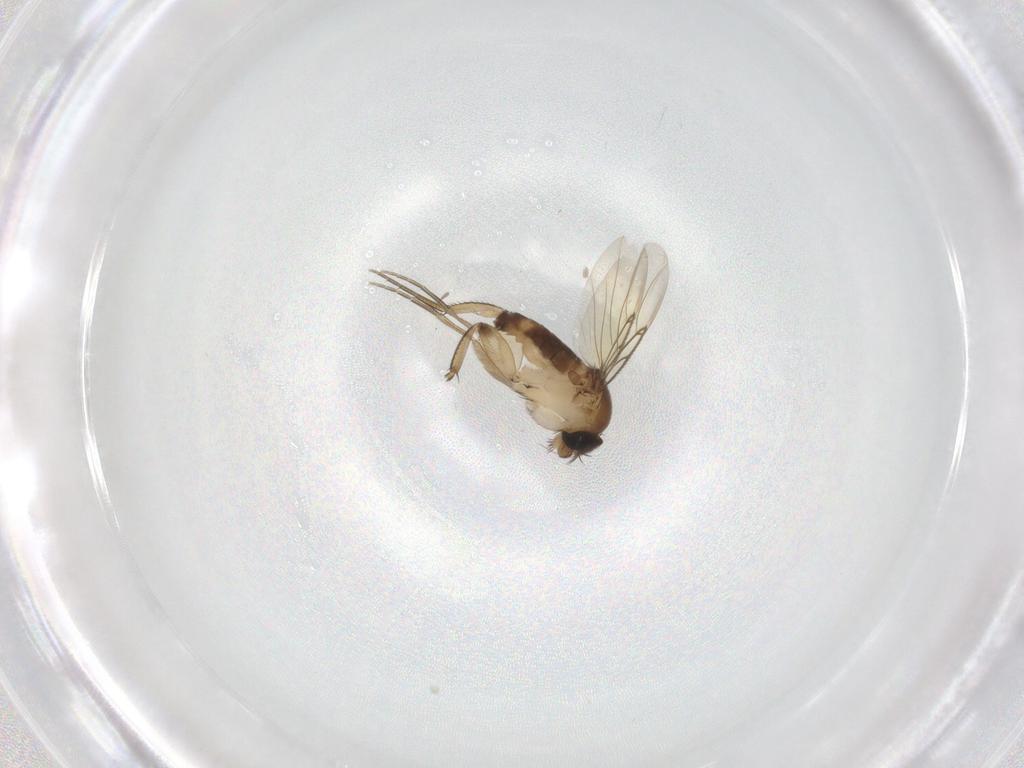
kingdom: Animalia
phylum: Arthropoda
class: Insecta
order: Diptera
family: Phoridae
